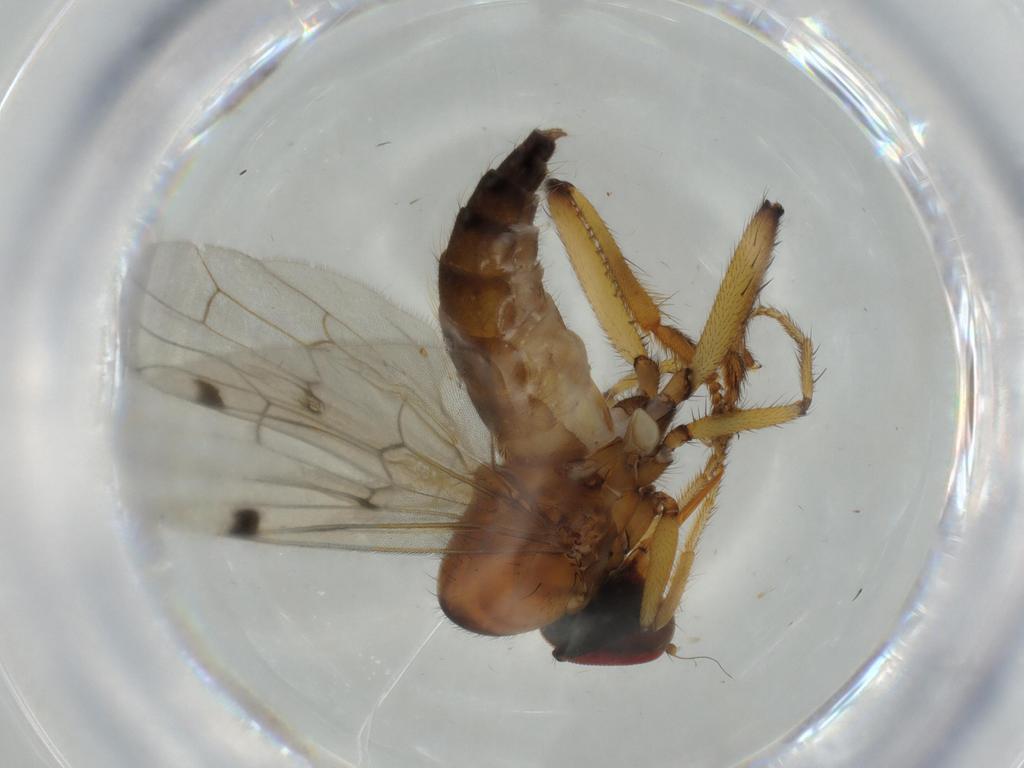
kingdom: Animalia
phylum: Arthropoda
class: Insecta
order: Diptera
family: Hybotidae
